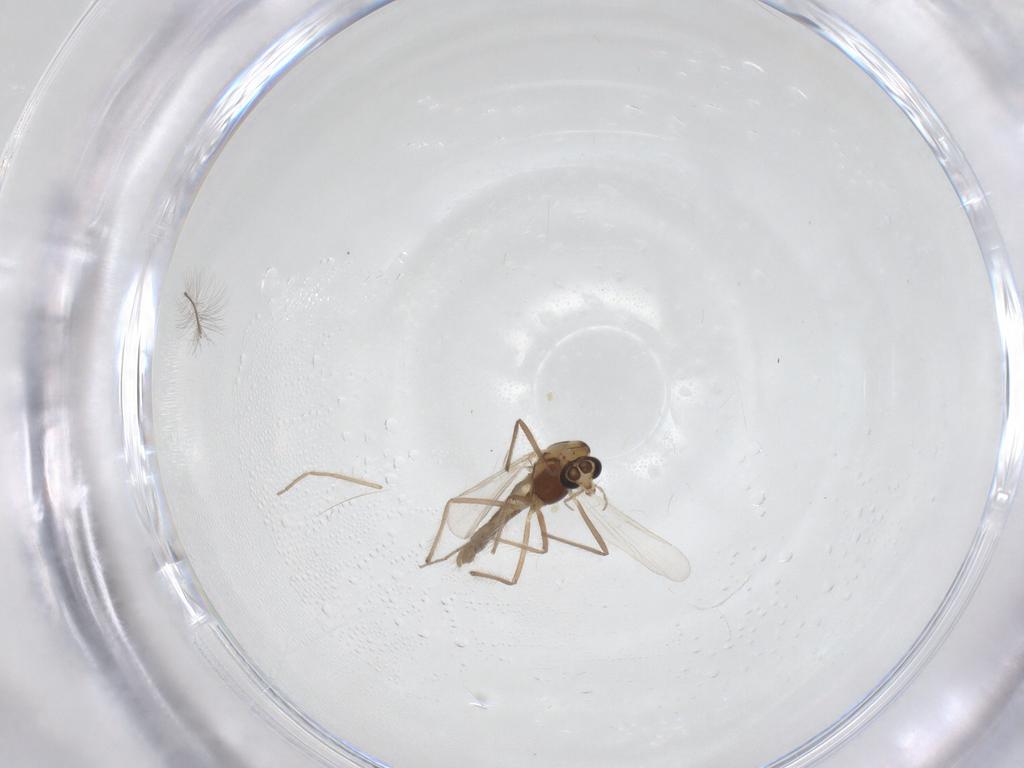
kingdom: Animalia
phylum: Arthropoda
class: Insecta
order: Diptera
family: Chironomidae
